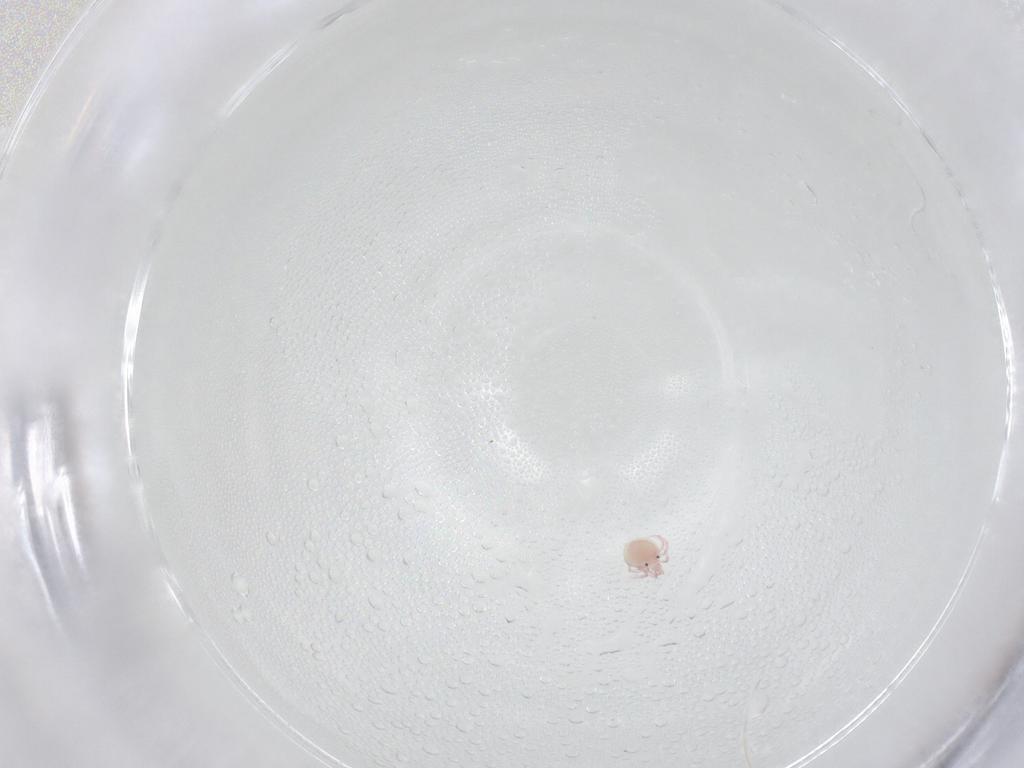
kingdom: Animalia
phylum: Arthropoda
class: Arachnida
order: Trombidiformes
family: Pionidae
